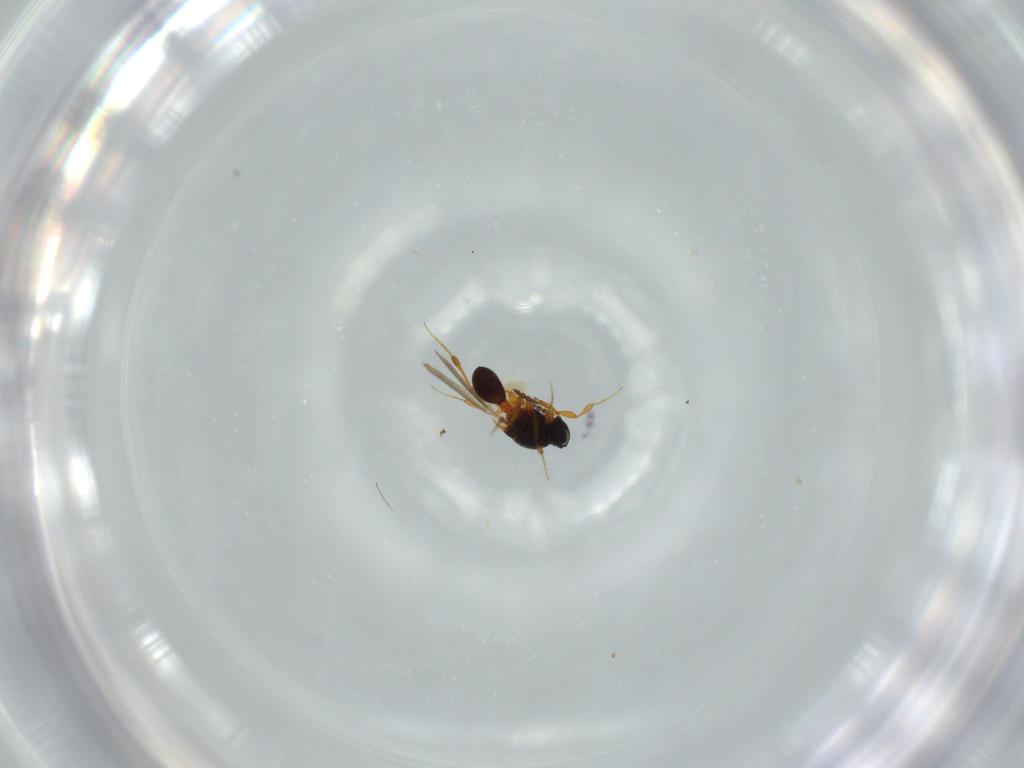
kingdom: Animalia
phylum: Arthropoda
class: Insecta
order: Hymenoptera
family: Platygastridae
